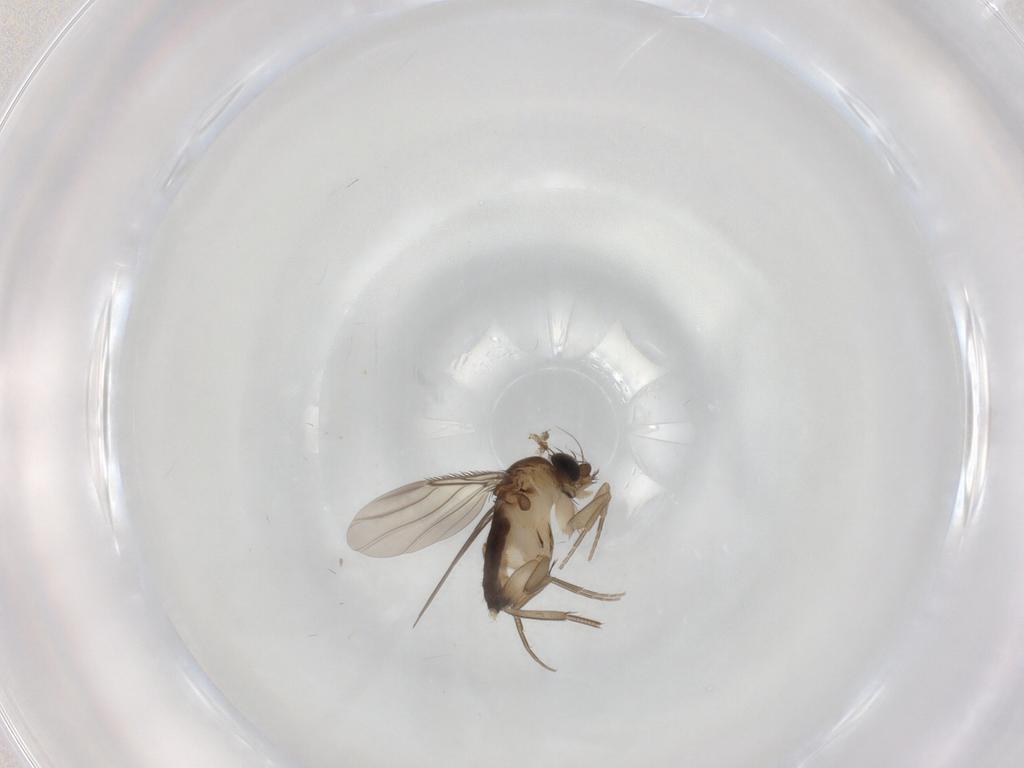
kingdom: Animalia
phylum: Arthropoda
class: Insecta
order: Diptera
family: Phoridae
